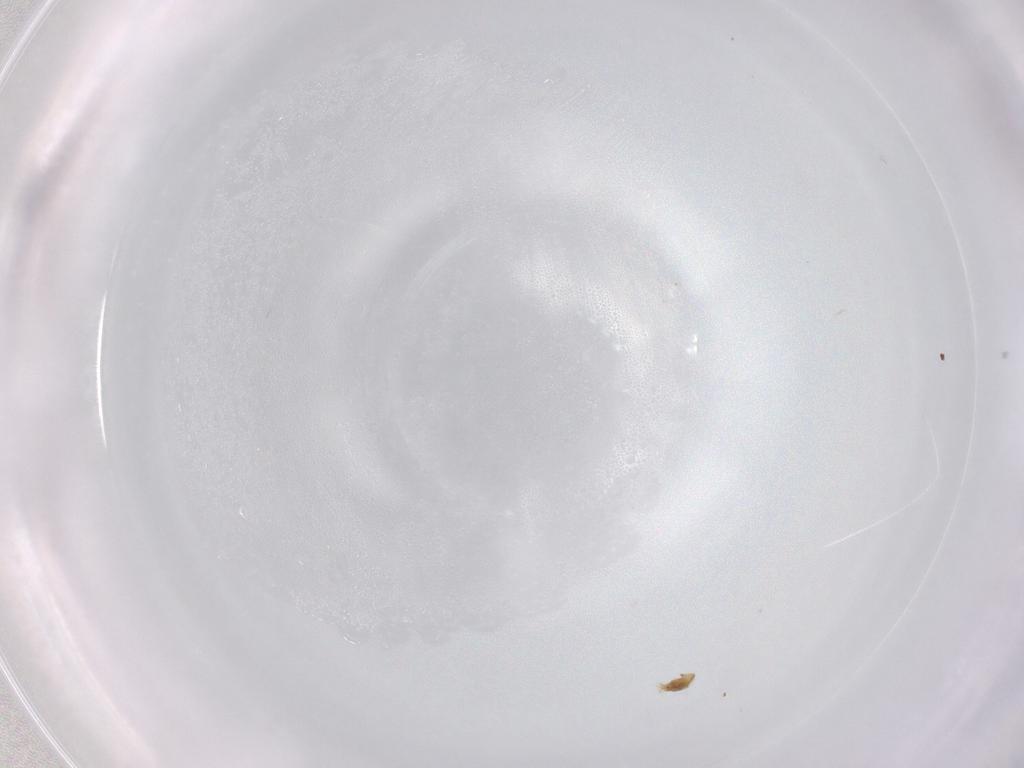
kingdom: Animalia
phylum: Arthropoda
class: Arachnida
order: Trombidiformes
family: Eupodidae
